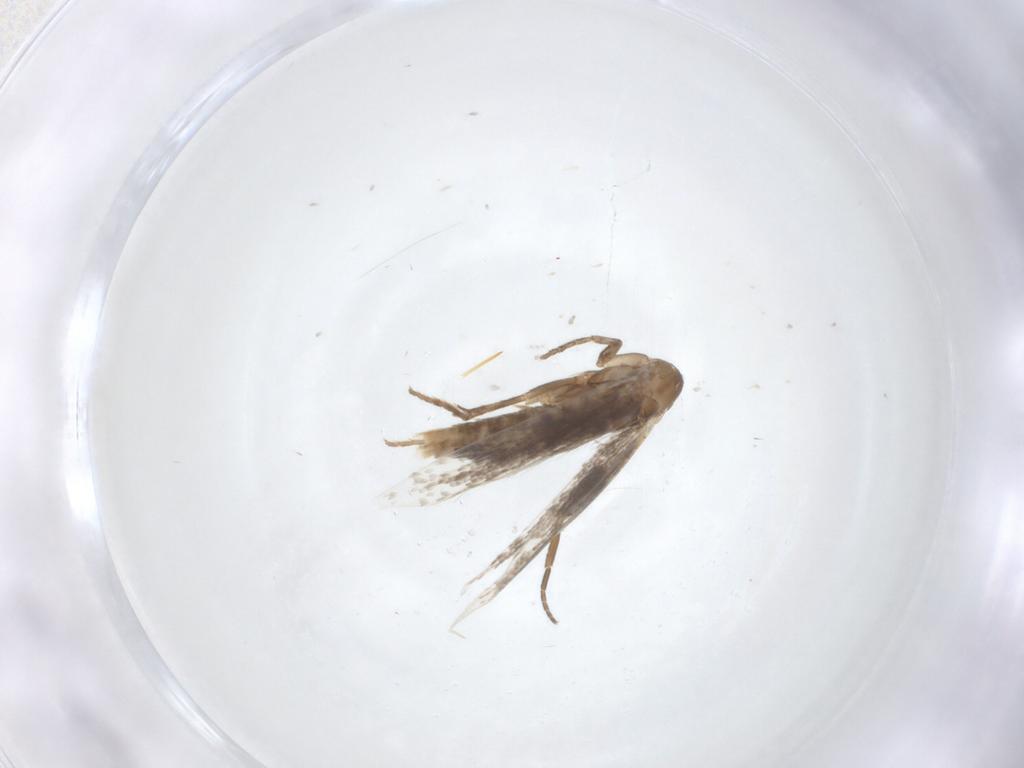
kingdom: Animalia
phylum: Arthropoda
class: Insecta
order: Lepidoptera
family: Elachistidae
